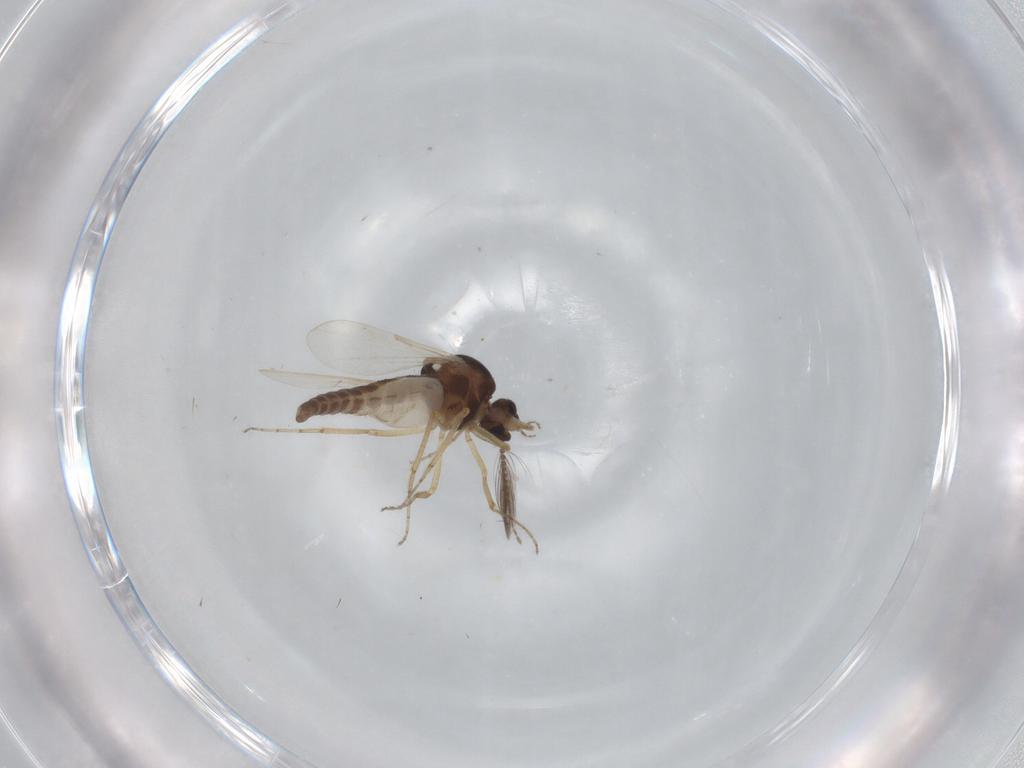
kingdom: Animalia
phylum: Arthropoda
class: Insecta
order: Diptera
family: Ceratopogonidae
